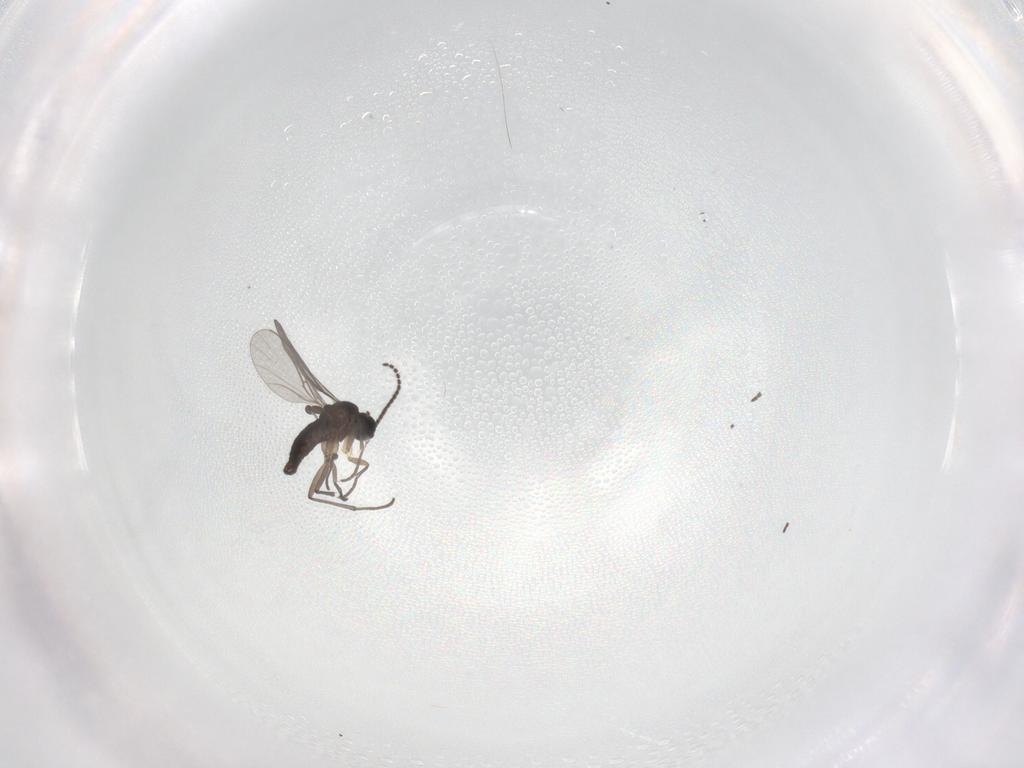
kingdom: Animalia
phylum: Arthropoda
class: Insecta
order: Diptera
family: Sciaridae
